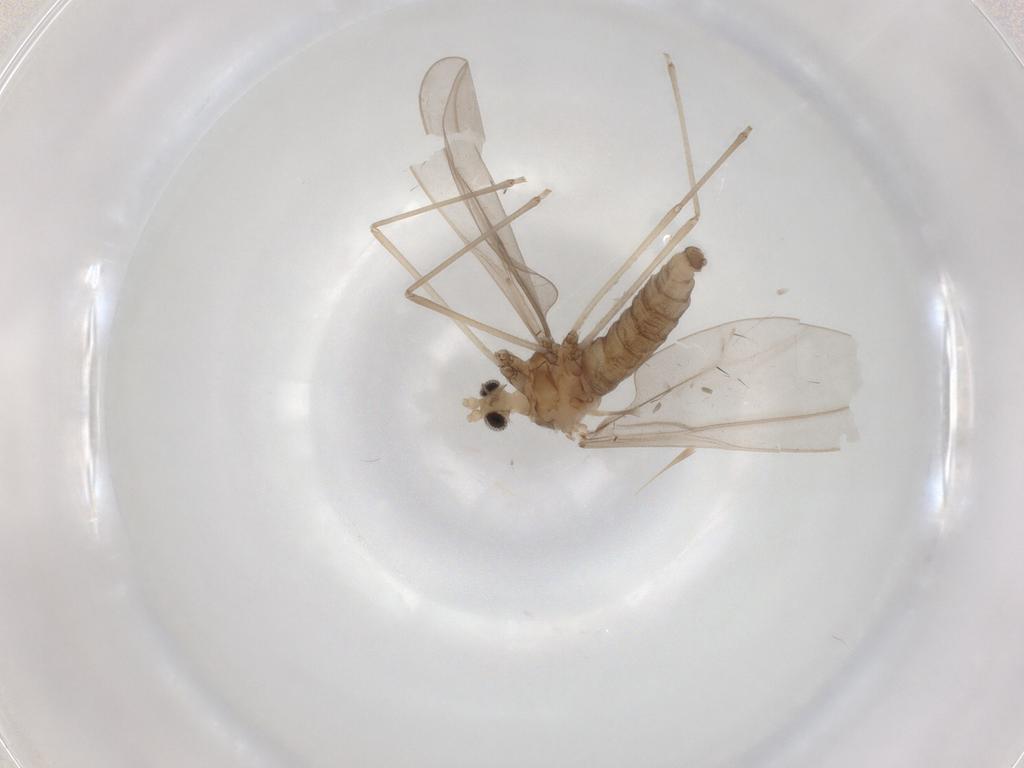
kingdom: Animalia
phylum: Arthropoda
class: Insecta
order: Diptera
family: Cecidomyiidae
